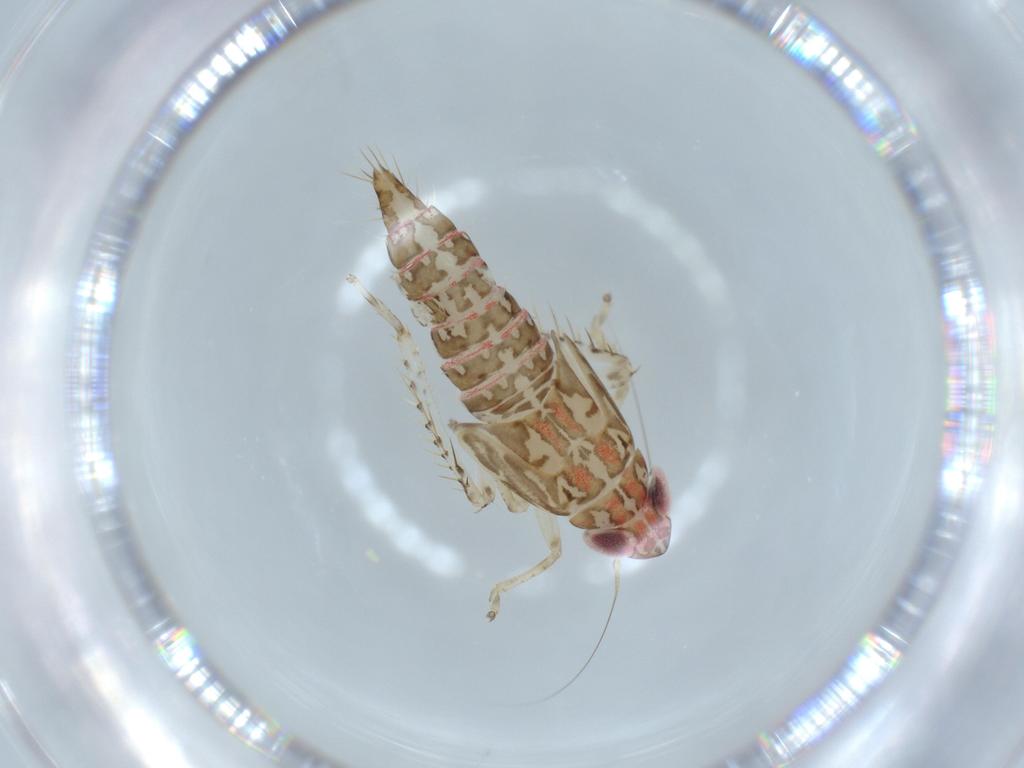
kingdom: Animalia
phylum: Arthropoda
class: Insecta
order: Hemiptera
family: Cicadellidae
